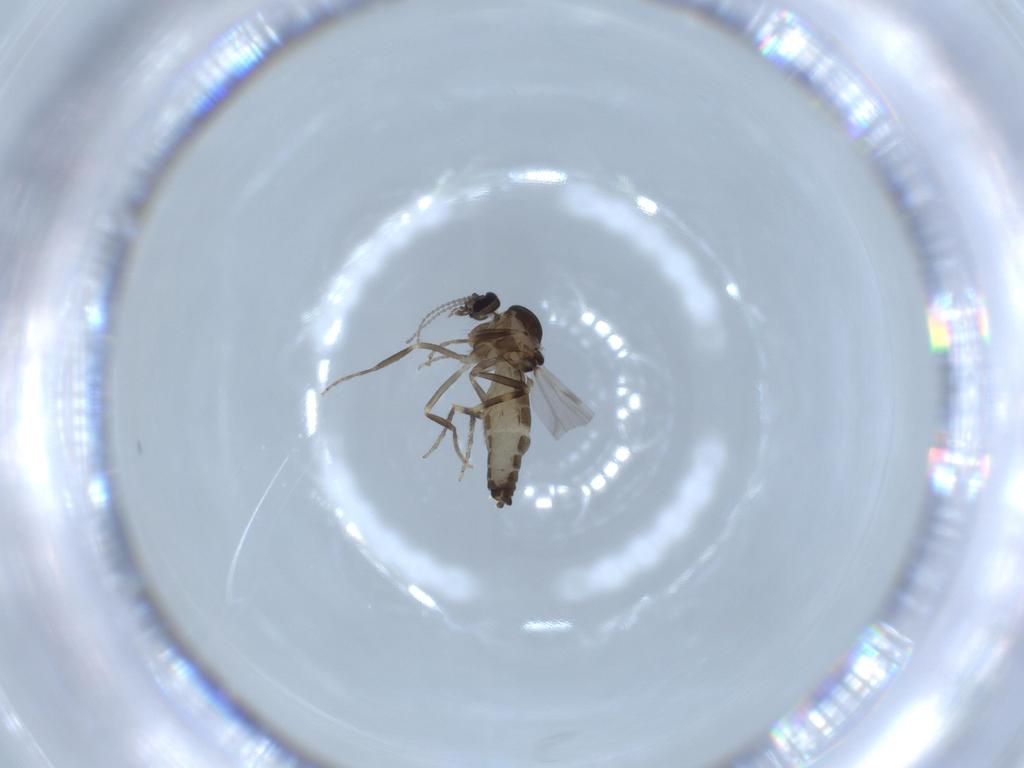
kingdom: Animalia
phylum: Arthropoda
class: Insecta
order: Diptera
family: Ceratopogonidae
